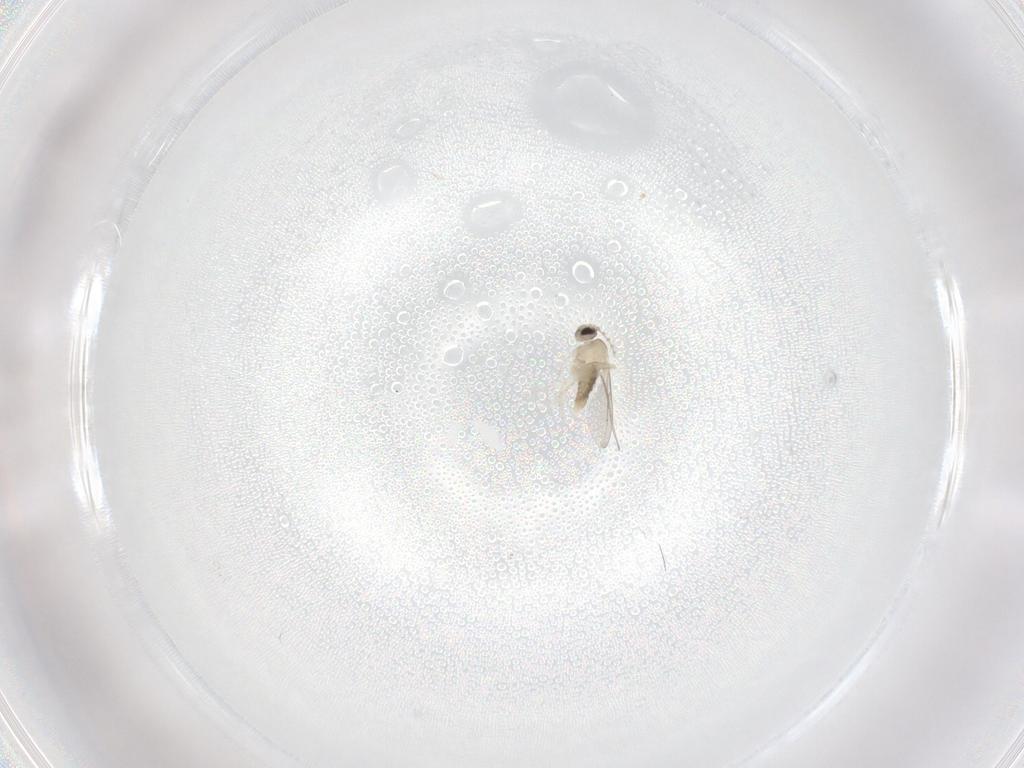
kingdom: Animalia
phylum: Arthropoda
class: Insecta
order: Diptera
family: Cecidomyiidae
